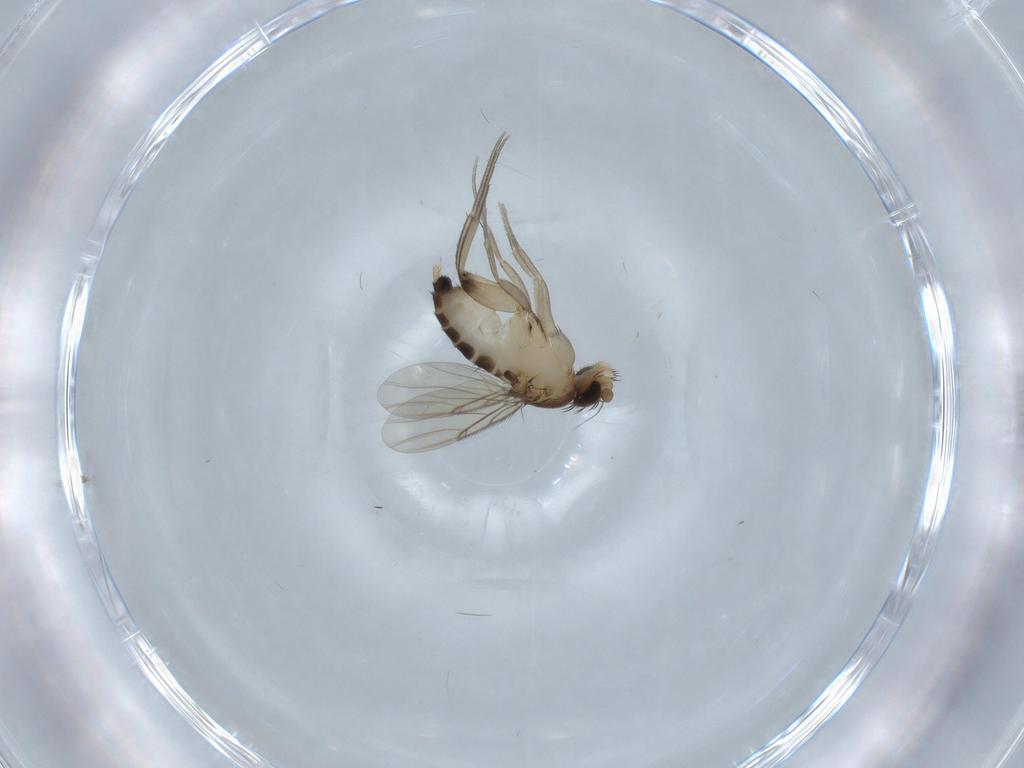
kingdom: Animalia
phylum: Arthropoda
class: Insecta
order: Diptera
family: Phoridae
